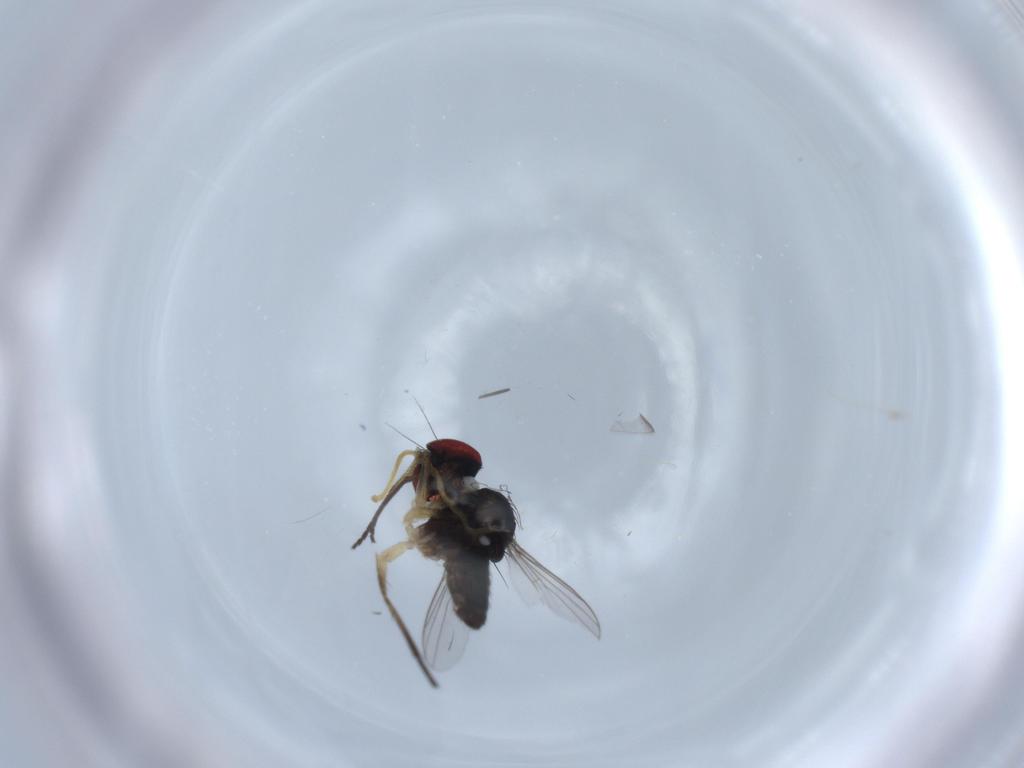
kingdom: Animalia
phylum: Arthropoda
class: Insecta
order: Diptera
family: Dolichopodidae
